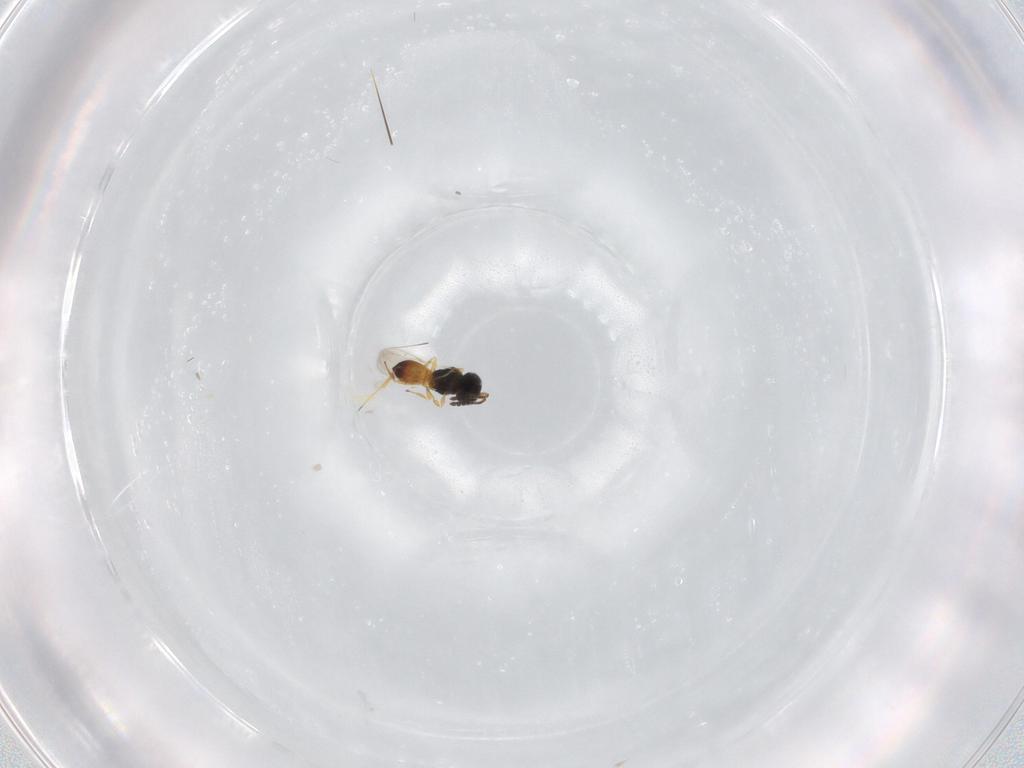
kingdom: Animalia
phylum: Arthropoda
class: Insecta
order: Hymenoptera
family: Scelionidae
